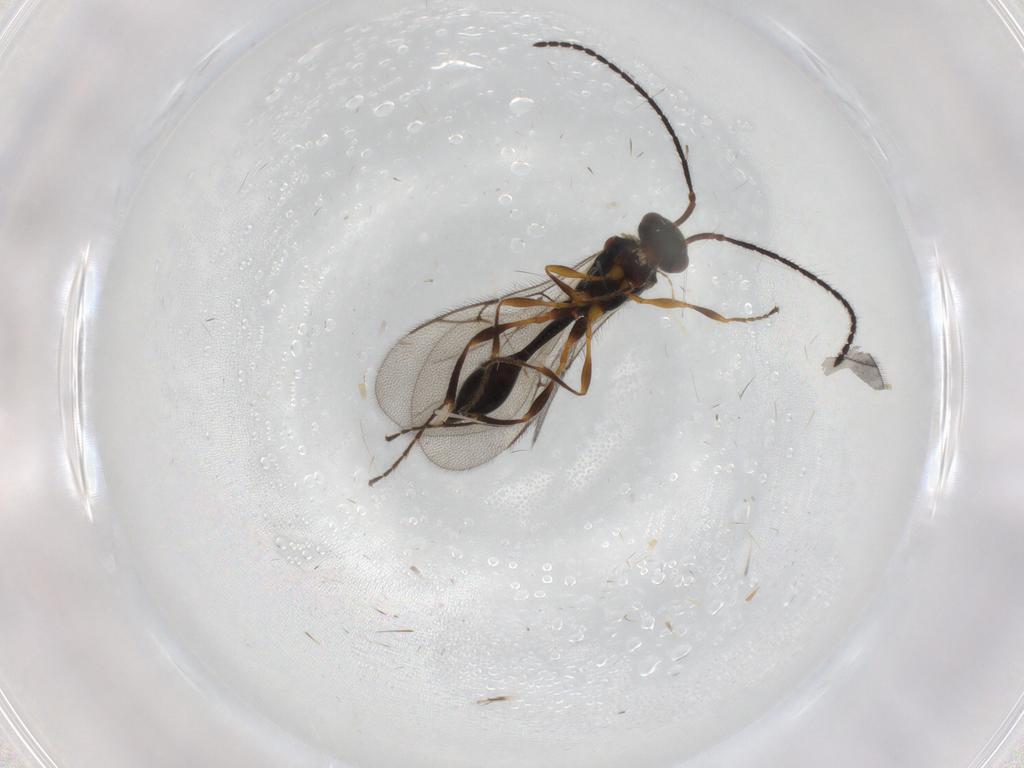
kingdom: Animalia
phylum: Arthropoda
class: Insecta
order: Hymenoptera
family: Diapriidae
